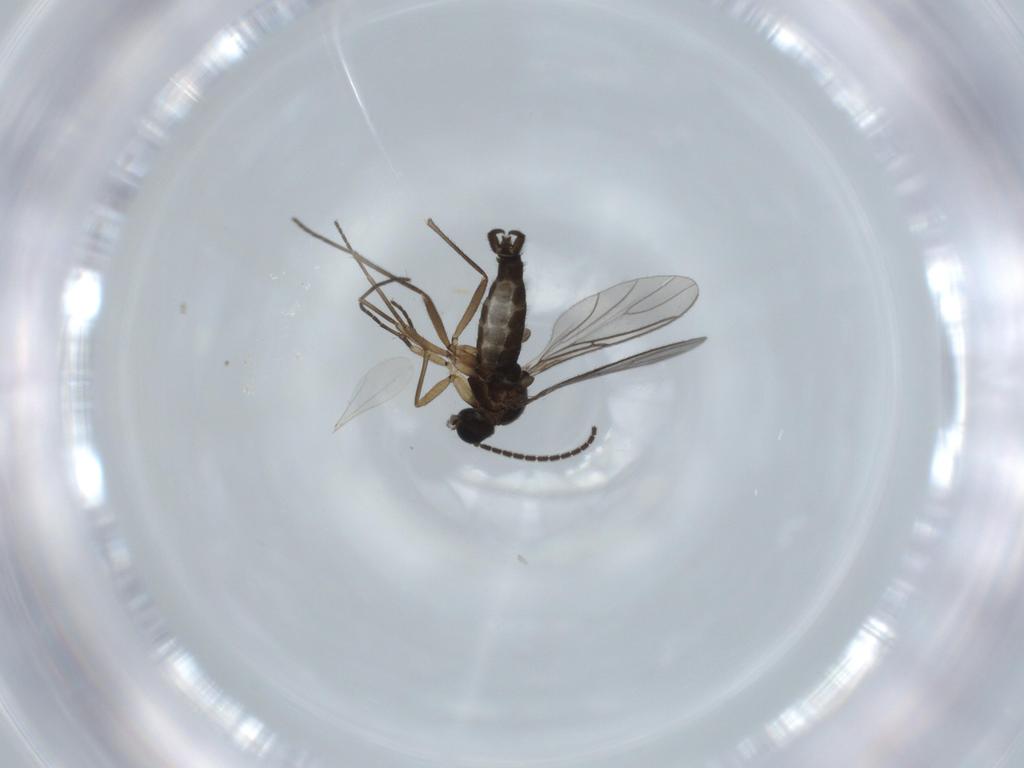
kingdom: Animalia
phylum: Arthropoda
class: Insecta
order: Diptera
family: Sciaridae
